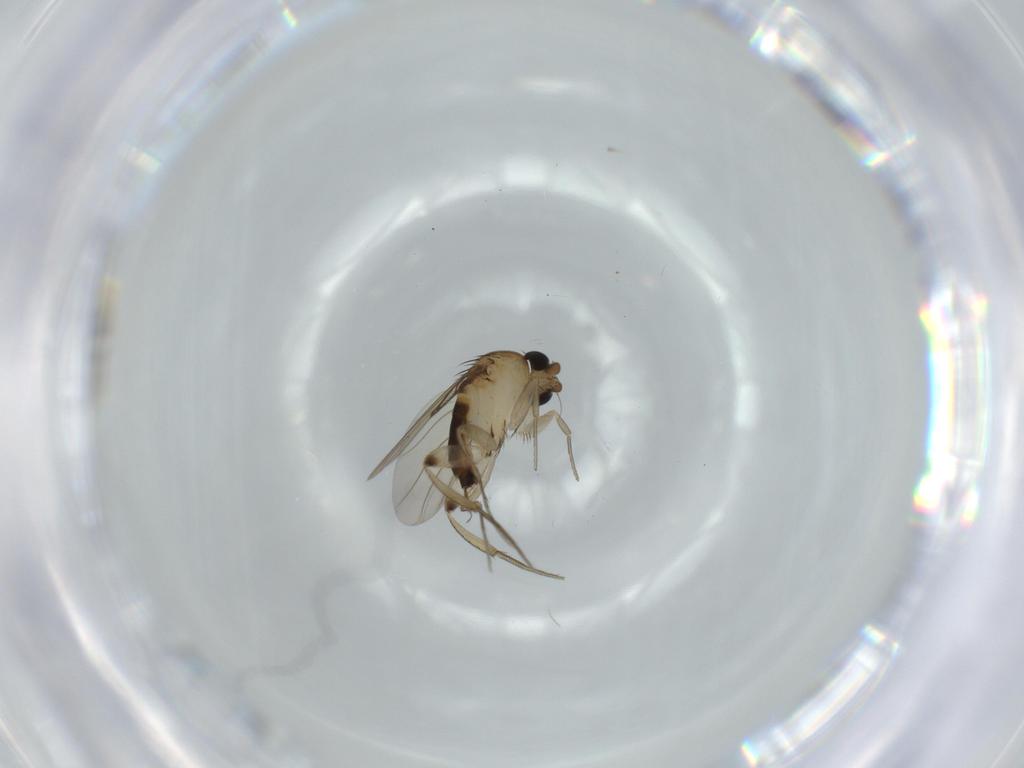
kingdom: Animalia
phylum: Arthropoda
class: Insecta
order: Diptera
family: Phoridae
